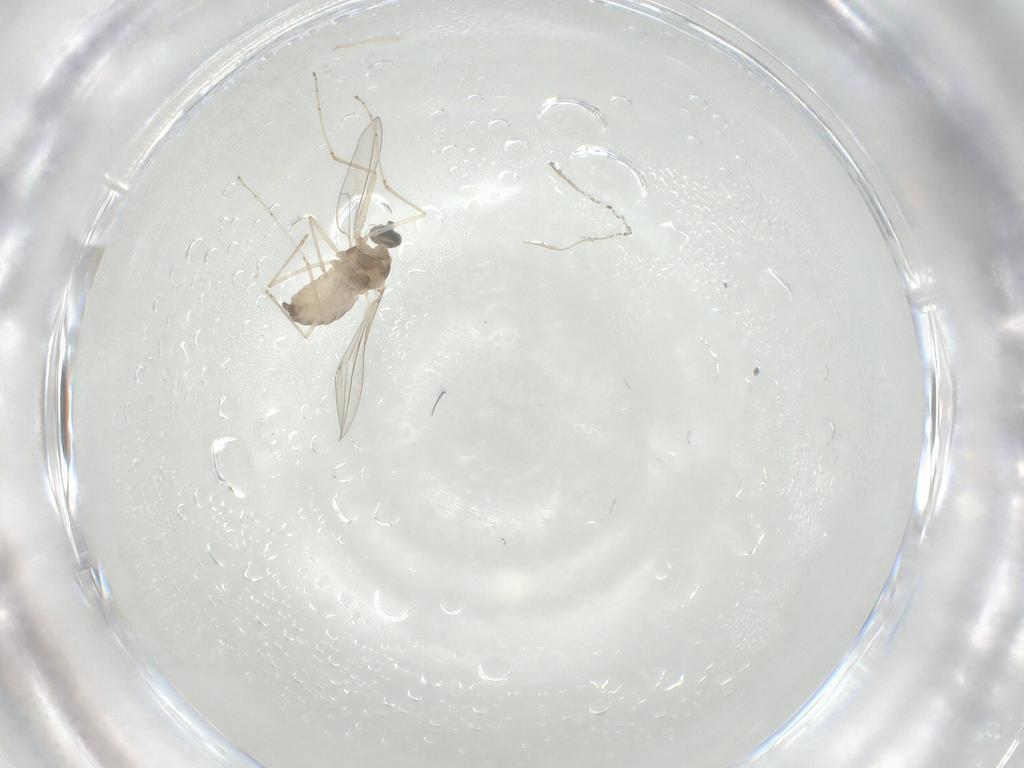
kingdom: Animalia
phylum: Arthropoda
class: Insecta
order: Diptera
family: Cecidomyiidae
